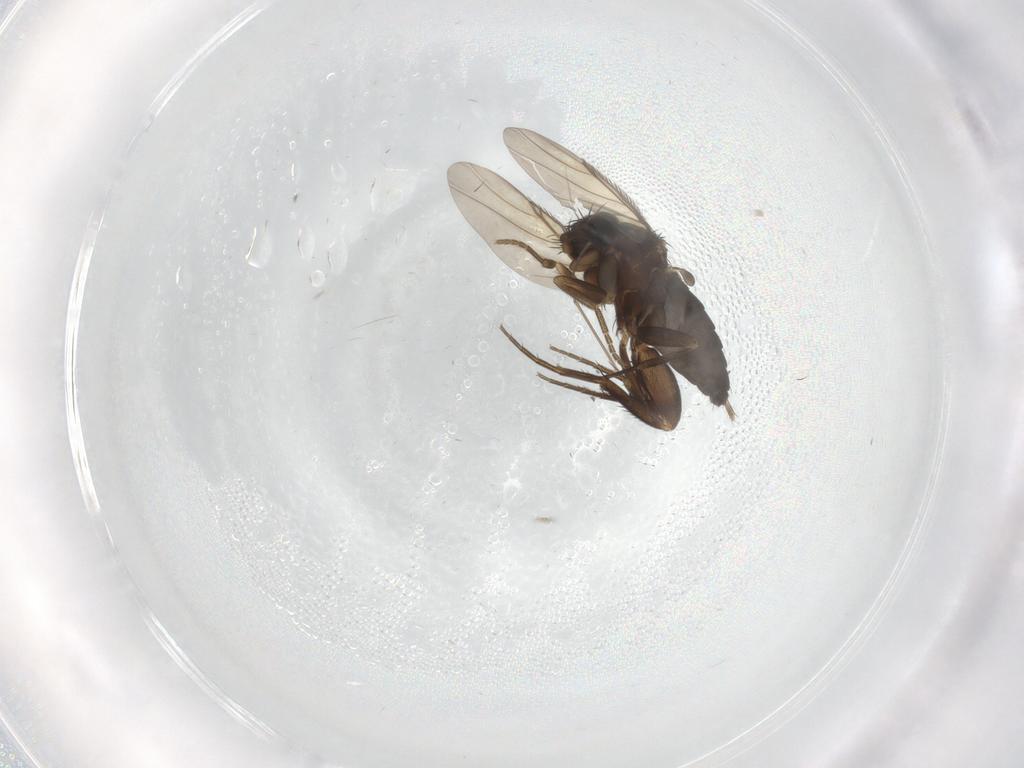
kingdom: Animalia
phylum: Arthropoda
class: Insecta
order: Diptera
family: Phoridae
